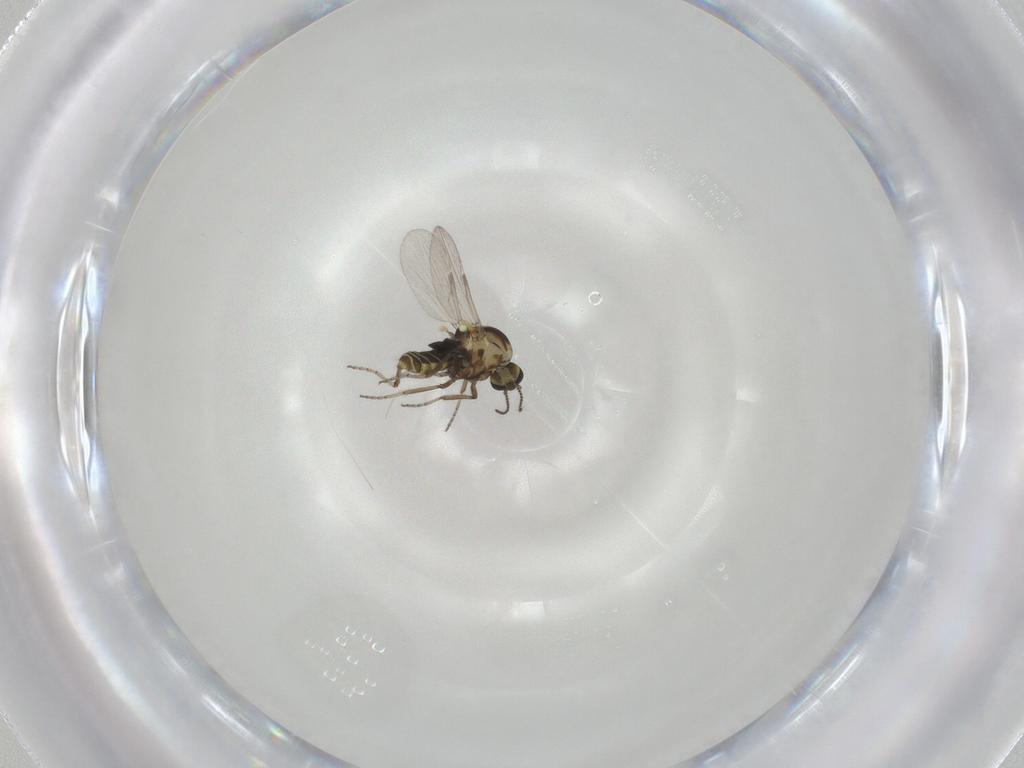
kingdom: Animalia
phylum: Arthropoda
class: Insecta
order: Diptera
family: Ceratopogonidae
